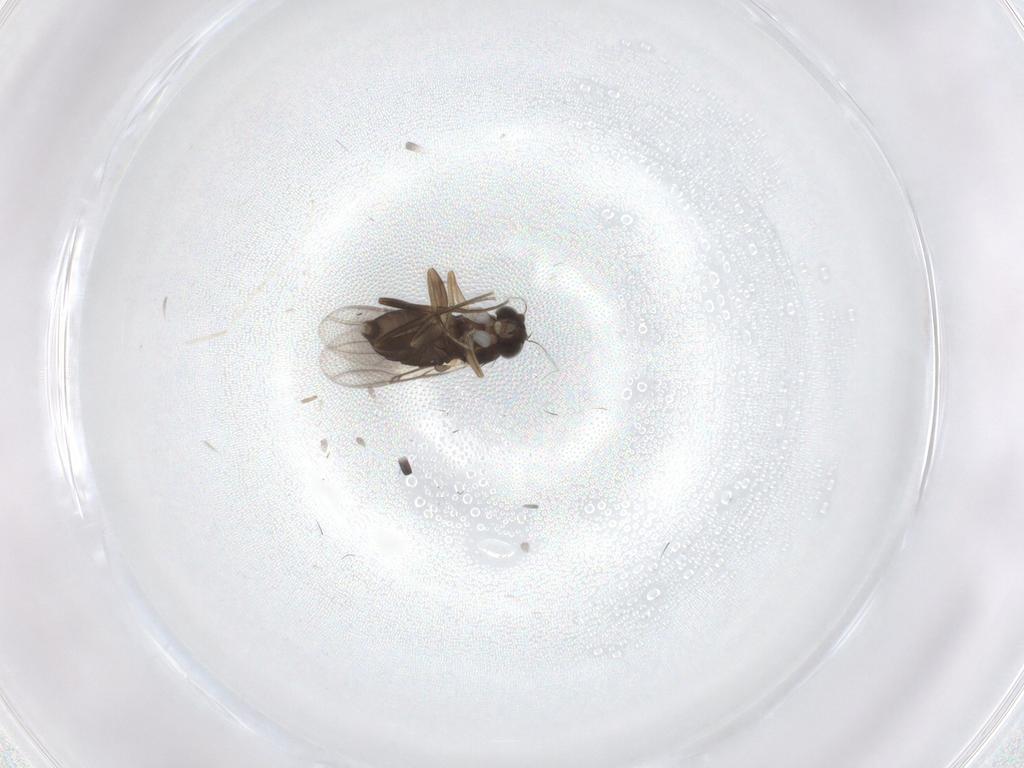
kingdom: Animalia
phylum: Arthropoda
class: Insecta
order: Diptera
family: Phoridae
